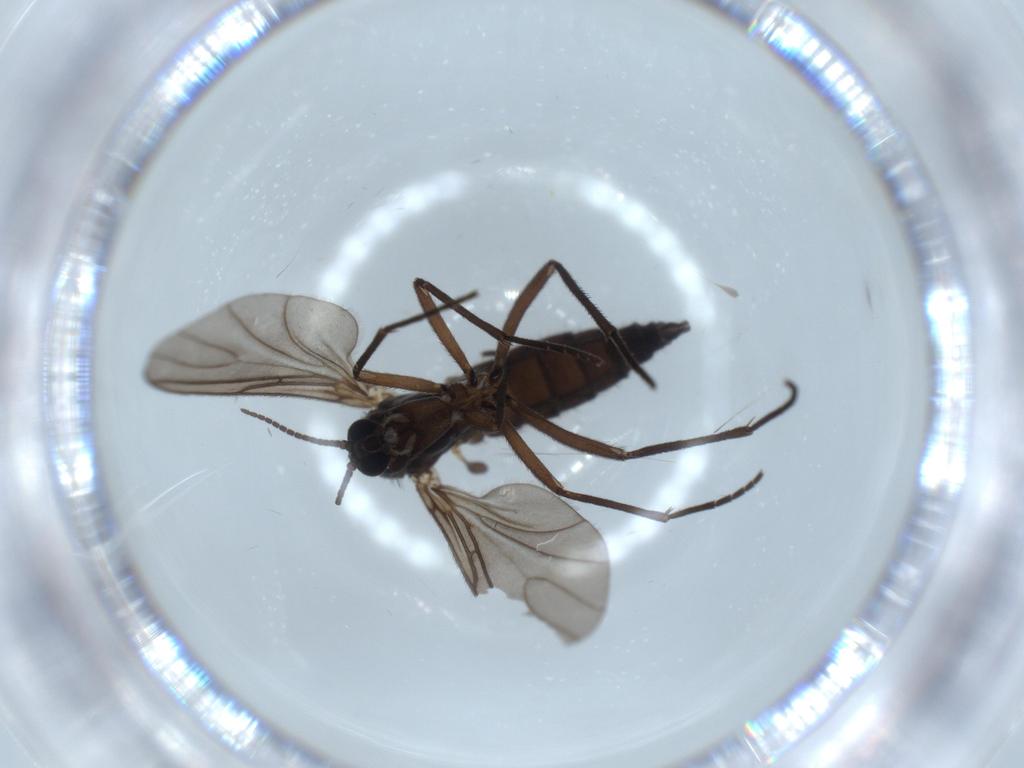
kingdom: Animalia
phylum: Arthropoda
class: Insecta
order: Diptera
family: Sciaridae
